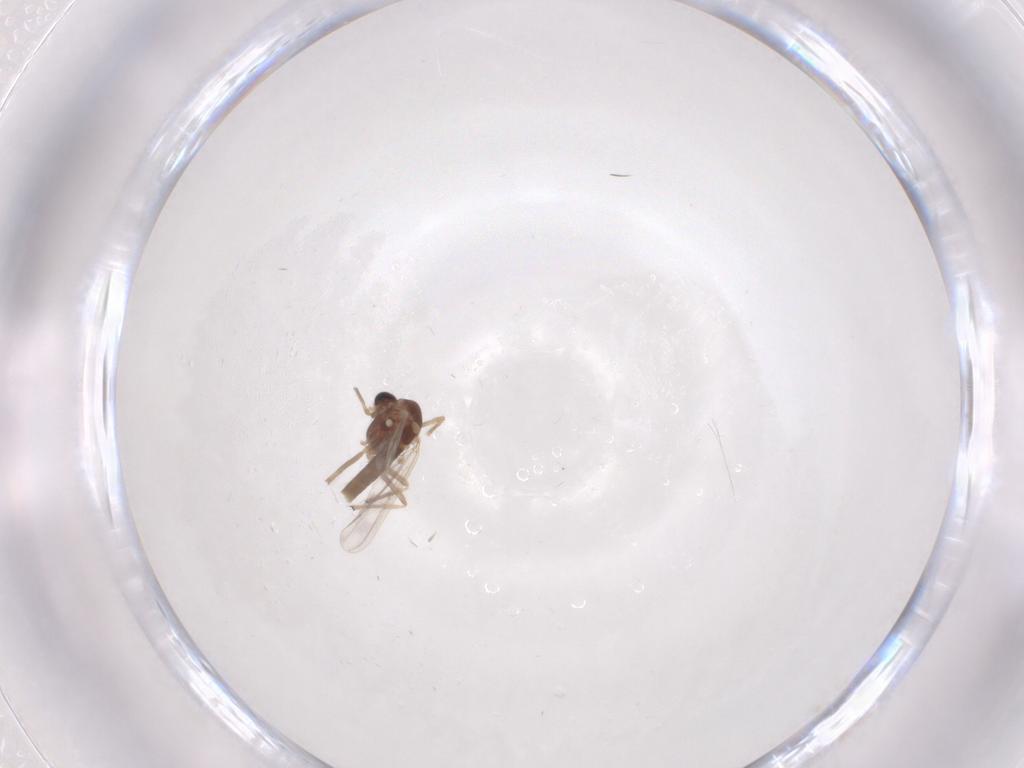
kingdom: Animalia
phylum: Arthropoda
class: Insecta
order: Diptera
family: Chironomidae
